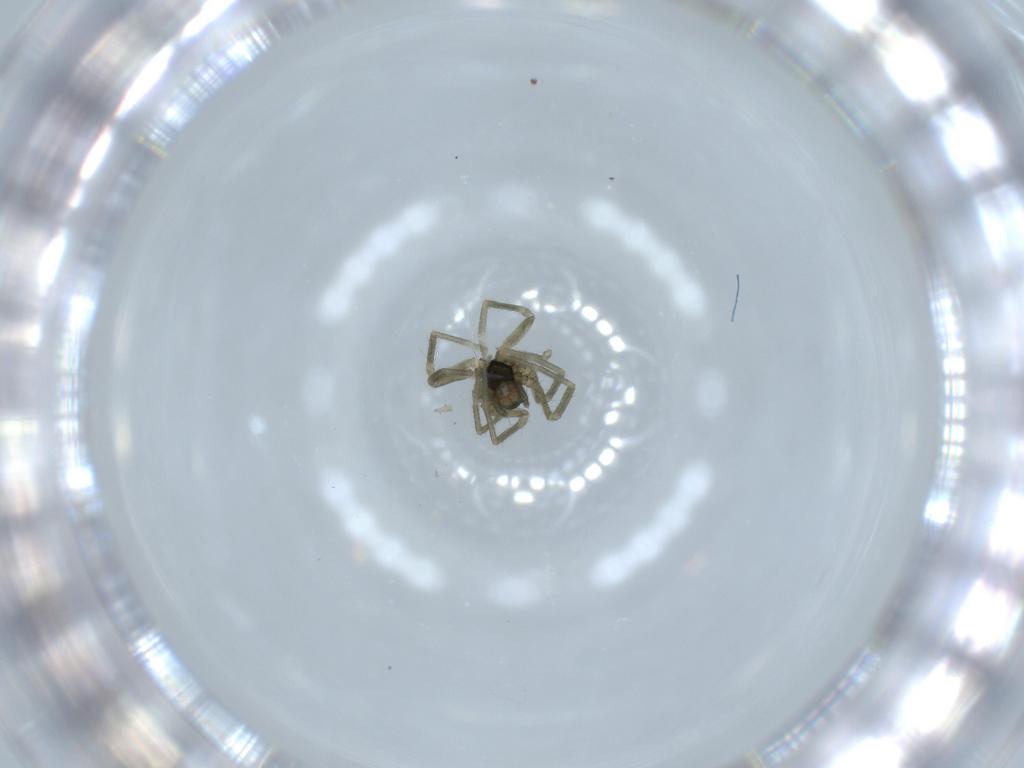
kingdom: Animalia
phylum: Arthropoda
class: Arachnida
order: Araneae
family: Linyphiidae
